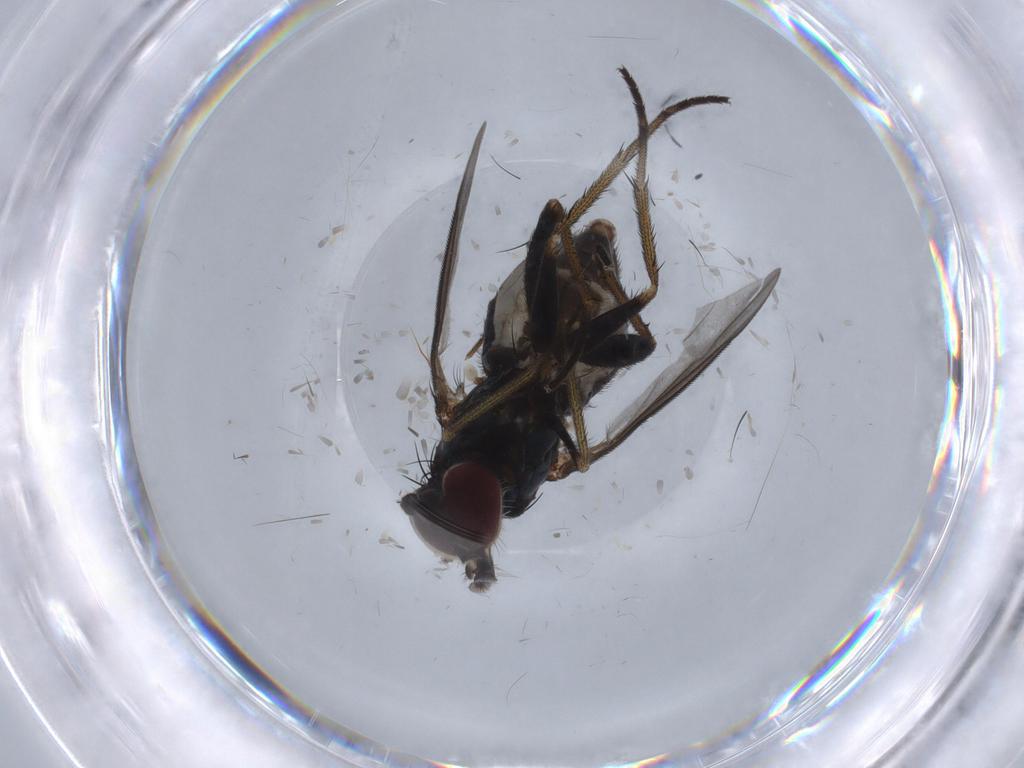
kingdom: Animalia
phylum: Arthropoda
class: Insecta
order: Diptera
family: Culicidae
